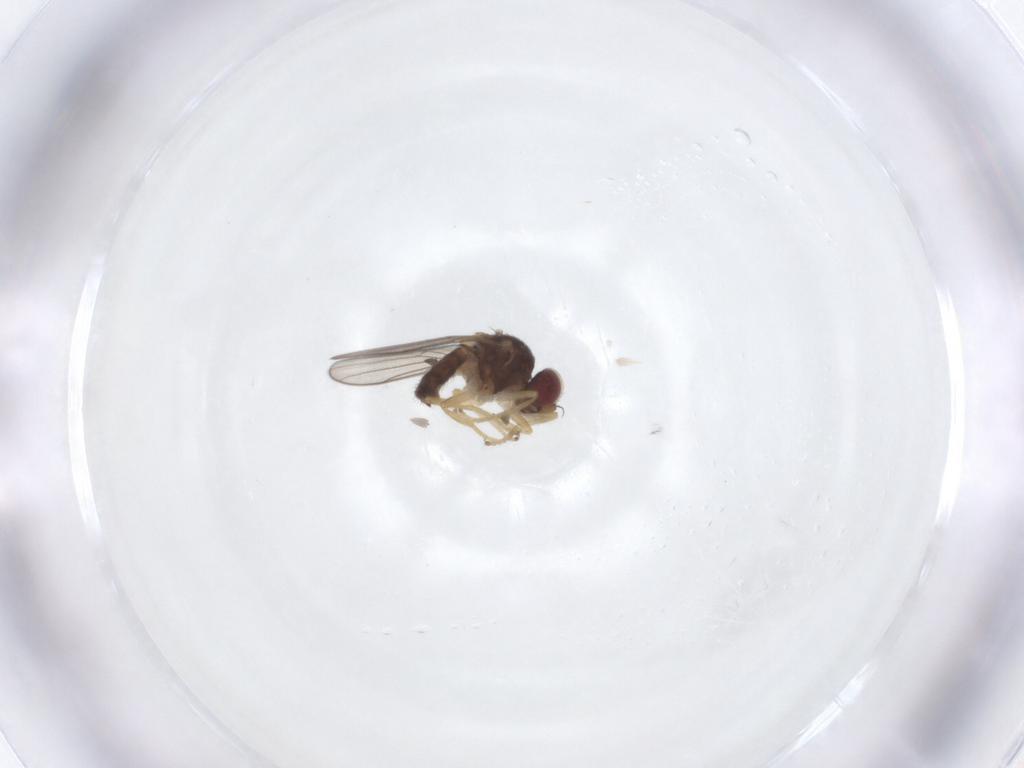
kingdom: Animalia
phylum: Arthropoda
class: Insecta
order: Diptera
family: Chloropidae
